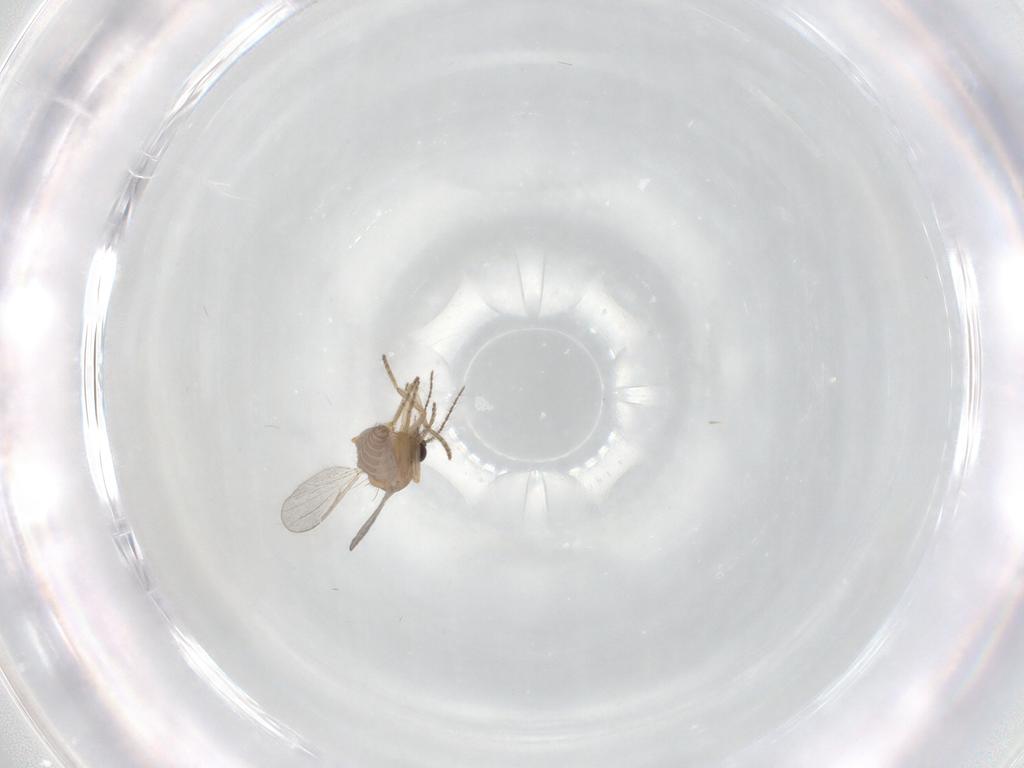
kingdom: Animalia
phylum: Arthropoda
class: Insecta
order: Diptera
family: Ceratopogonidae
